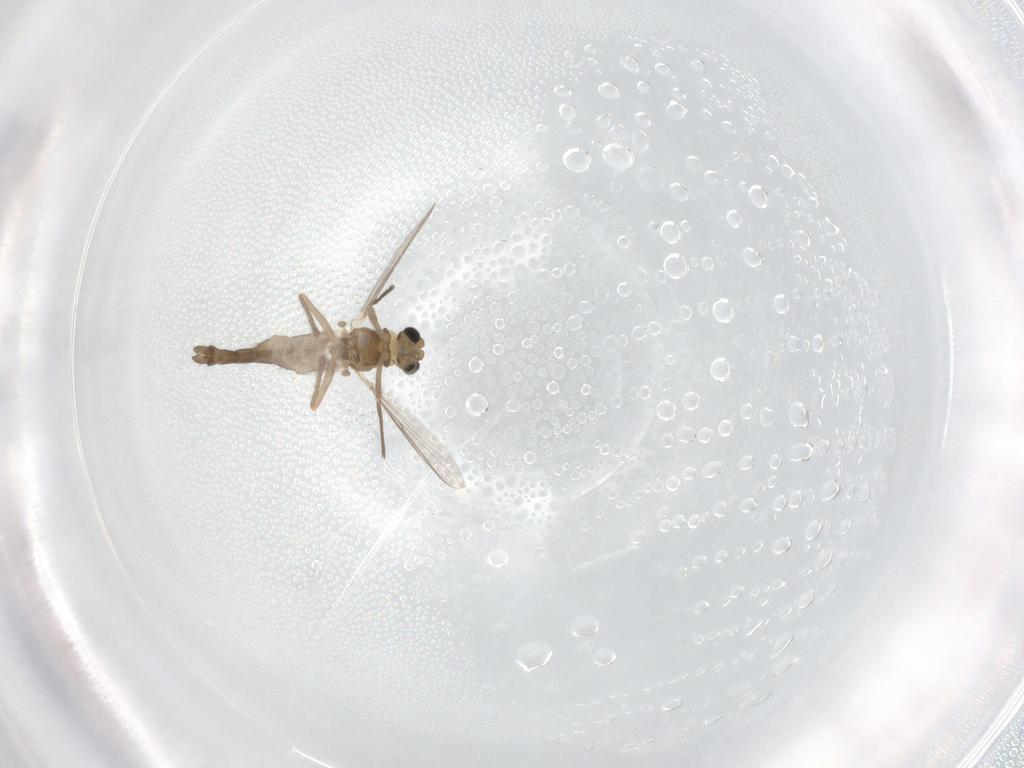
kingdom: Animalia
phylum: Arthropoda
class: Insecta
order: Diptera
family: Chironomidae
